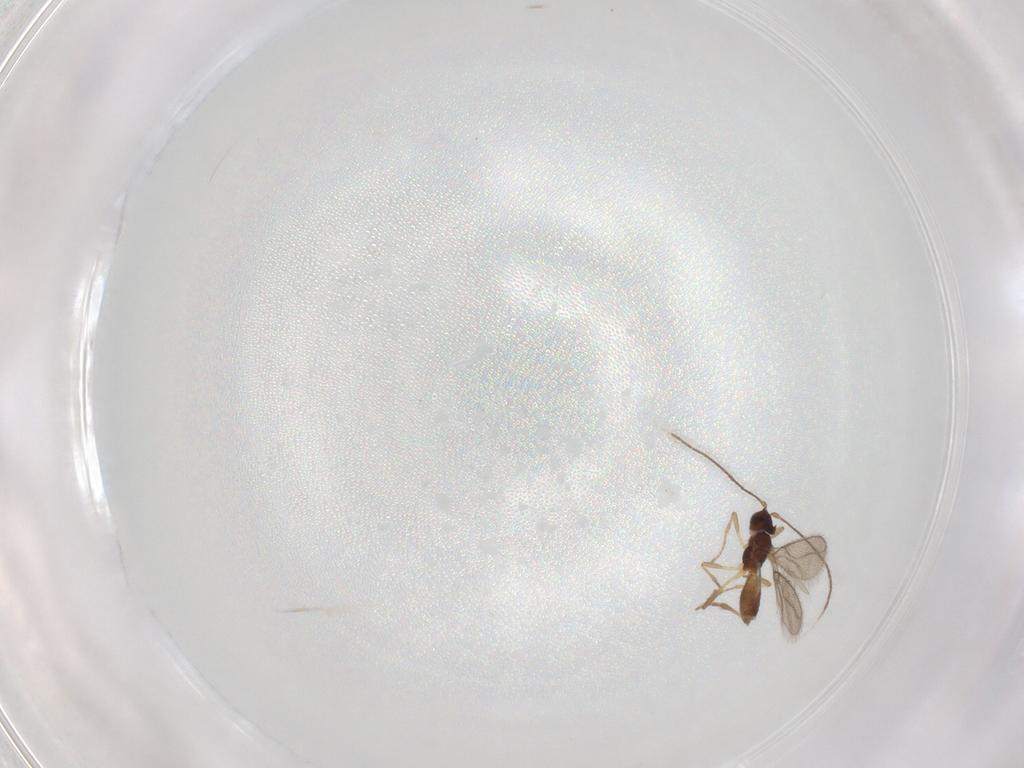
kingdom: Animalia
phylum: Arthropoda
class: Insecta
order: Hymenoptera
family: Braconidae
